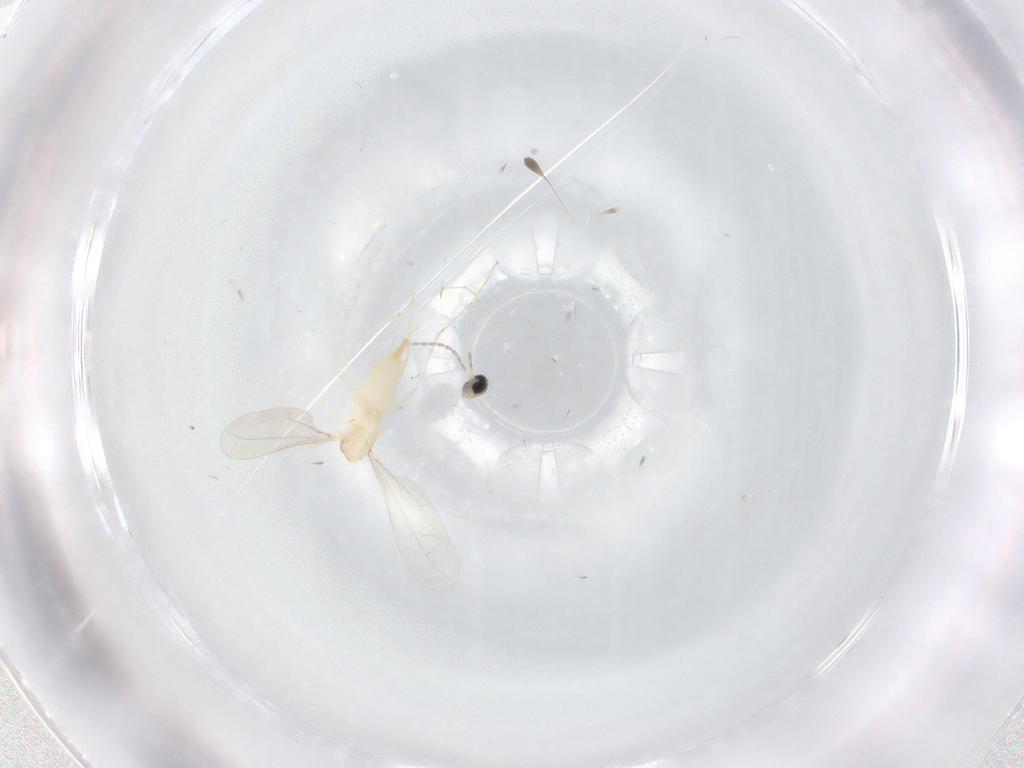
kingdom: Animalia
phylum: Arthropoda
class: Insecta
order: Diptera
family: Cecidomyiidae
